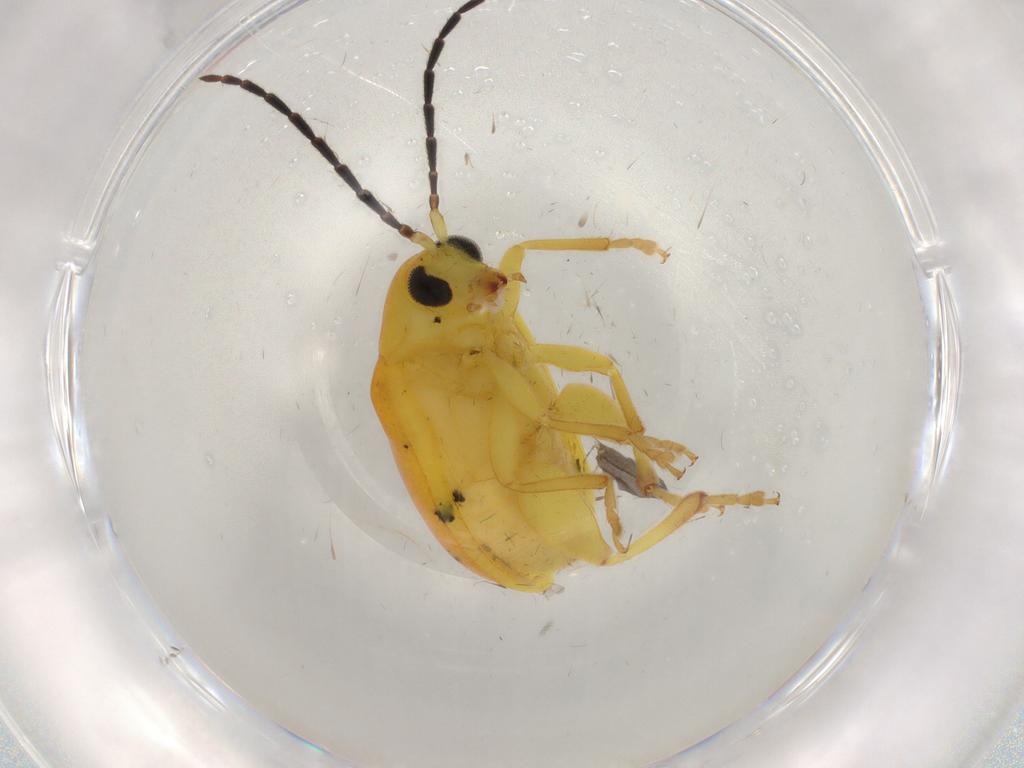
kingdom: Animalia
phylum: Arthropoda
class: Insecta
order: Coleoptera
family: Chrysomelidae
